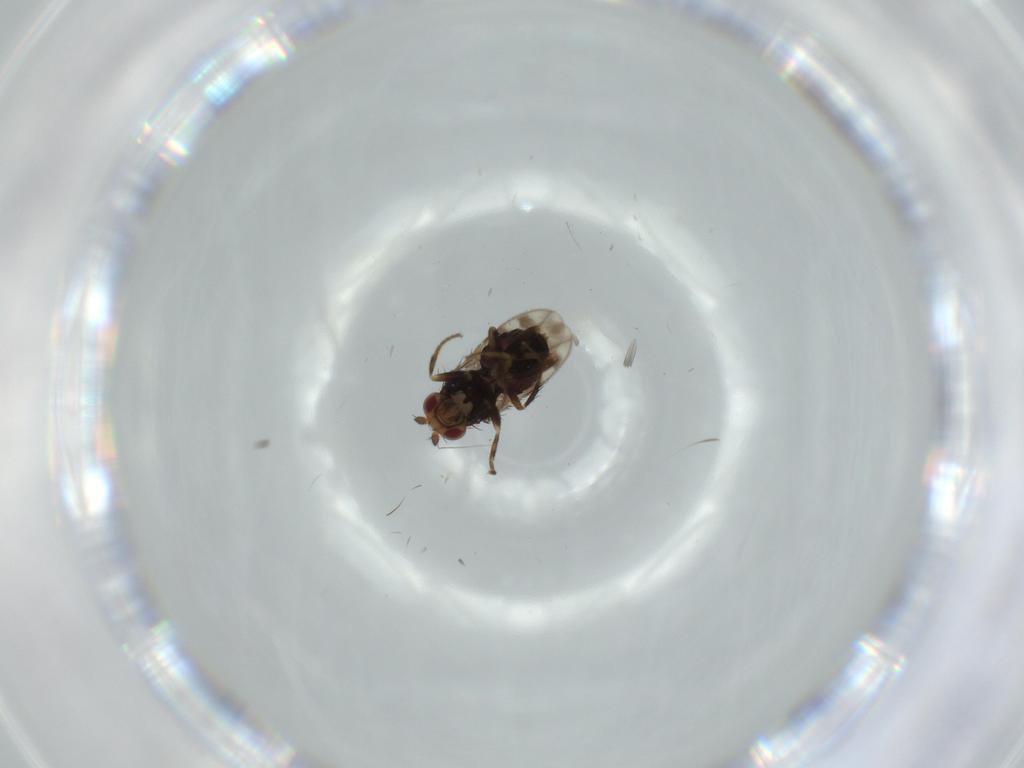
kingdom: Animalia
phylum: Arthropoda
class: Insecta
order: Diptera
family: Sphaeroceridae
